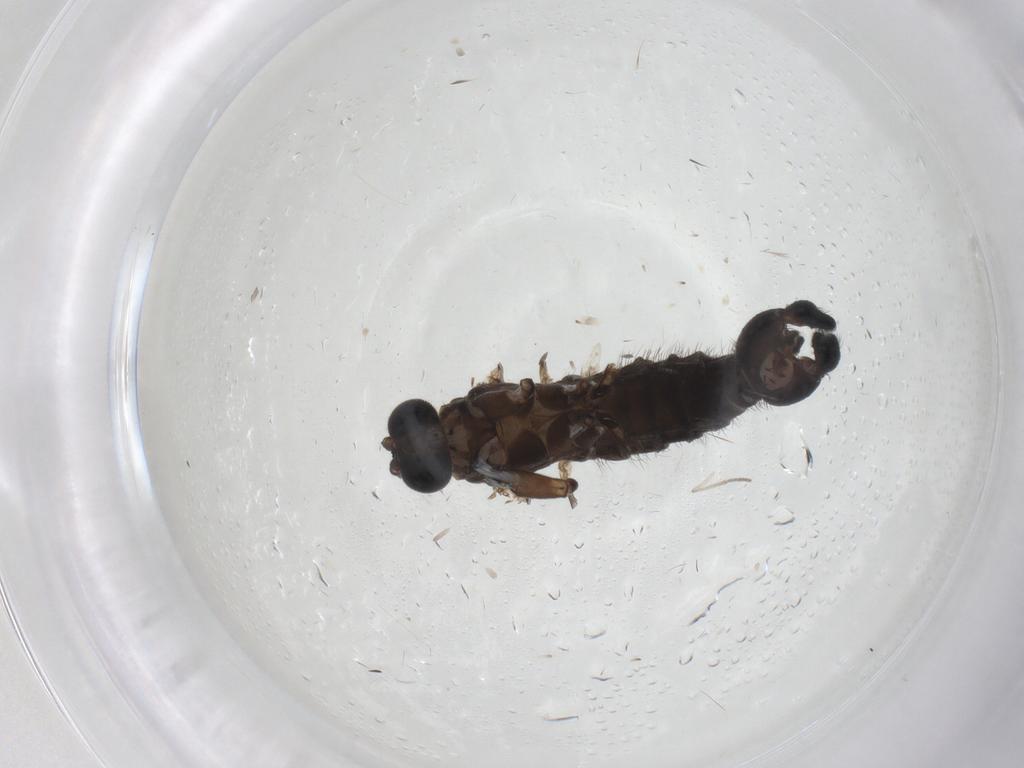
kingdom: Animalia
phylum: Arthropoda
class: Insecta
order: Diptera
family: Sciaridae
